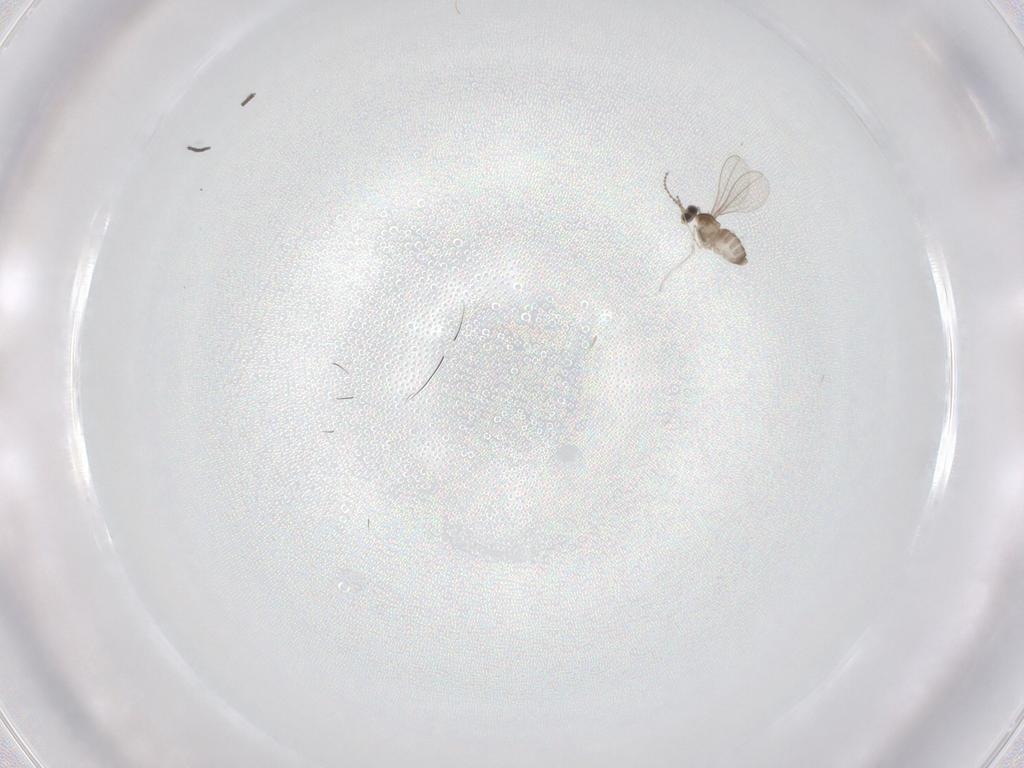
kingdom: Animalia
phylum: Arthropoda
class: Insecta
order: Diptera
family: Cecidomyiidae
